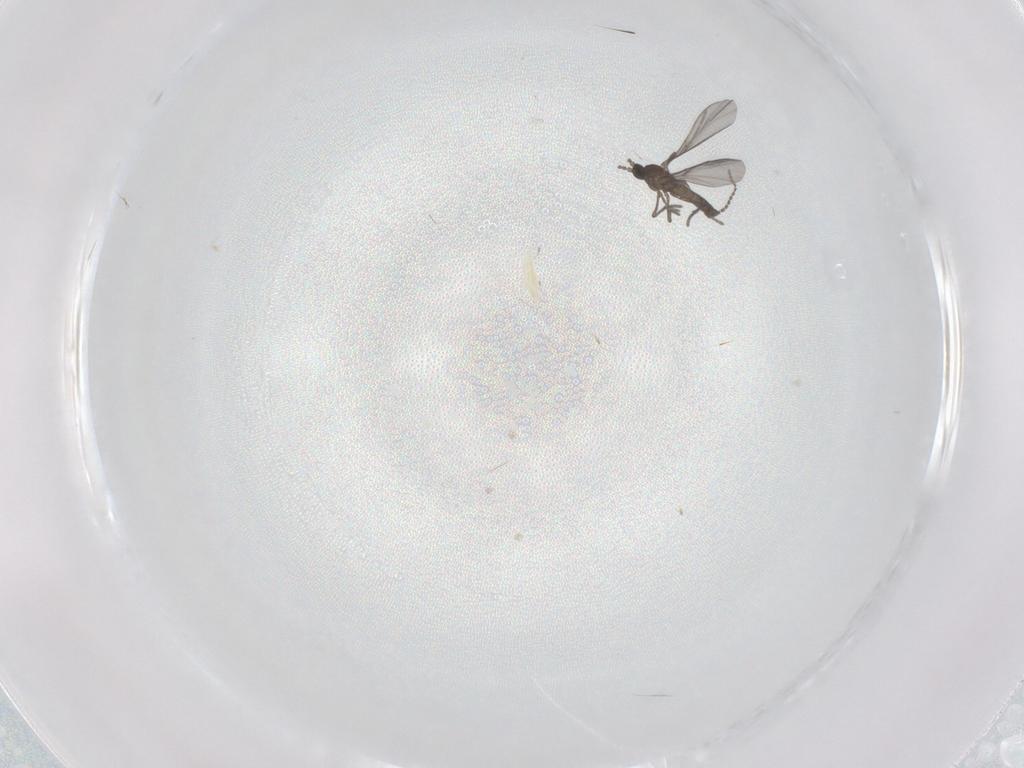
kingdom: Animalia
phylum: Arthropoda
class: Insecta
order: Diptera
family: Sciaridae
